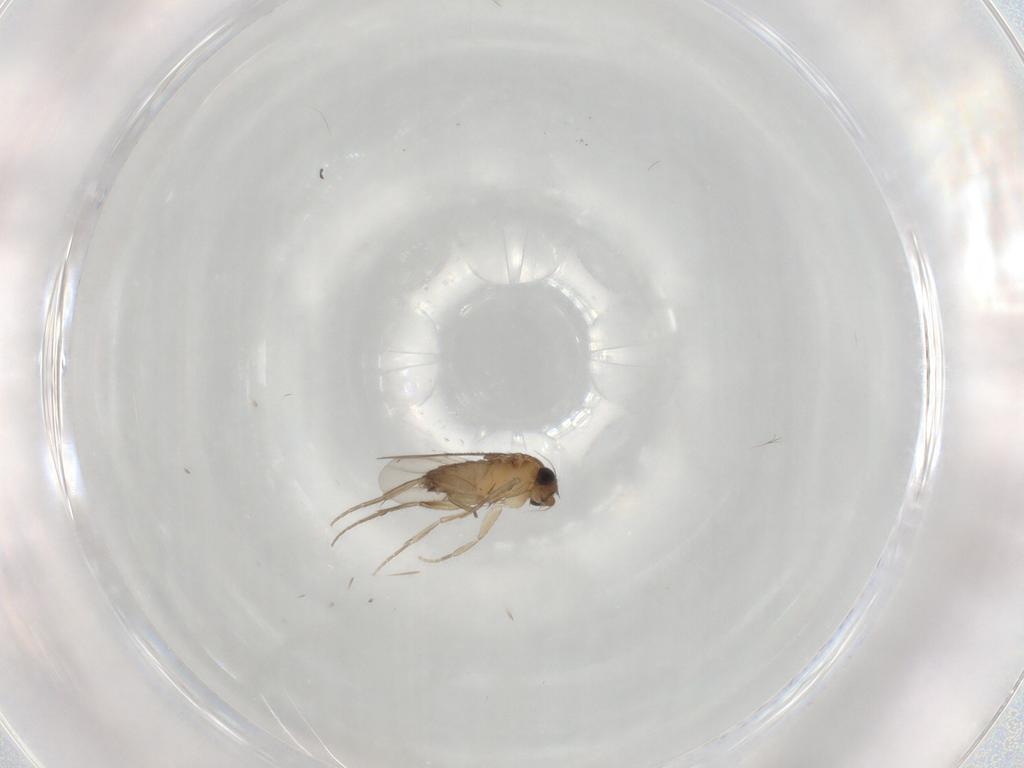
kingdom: Animalia
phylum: Arthropoda
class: Insecta
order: Diptera
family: Phoridae
